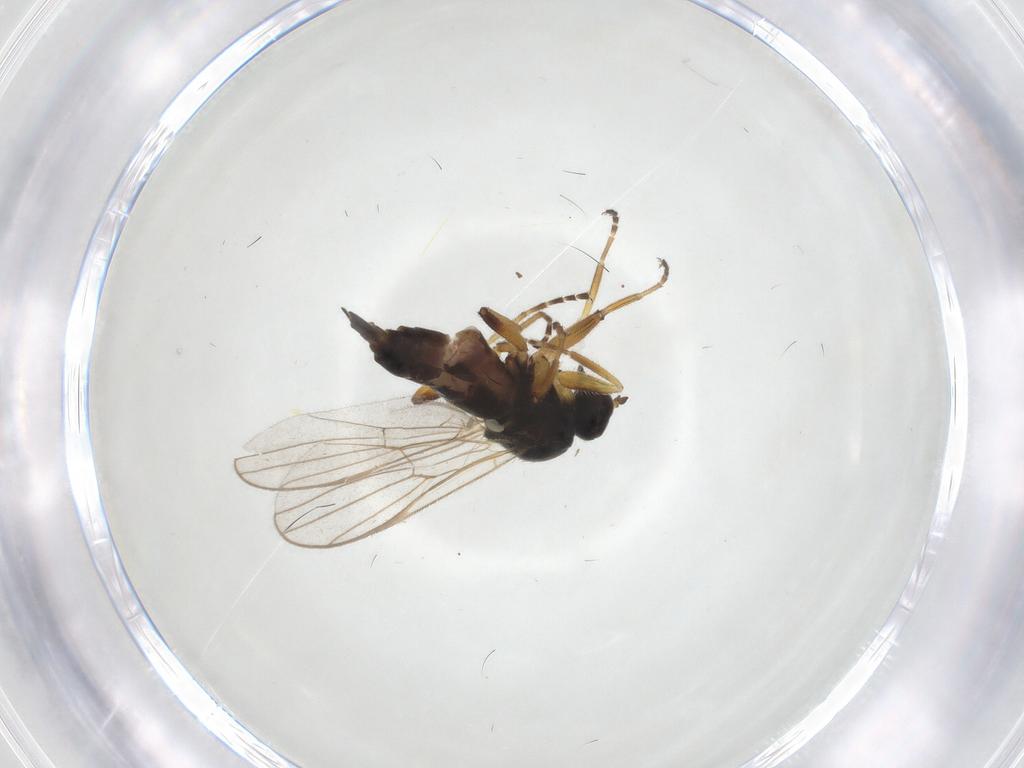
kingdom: Animalia
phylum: Arthropoda
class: Insecta
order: Diptera
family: Hybotidae
